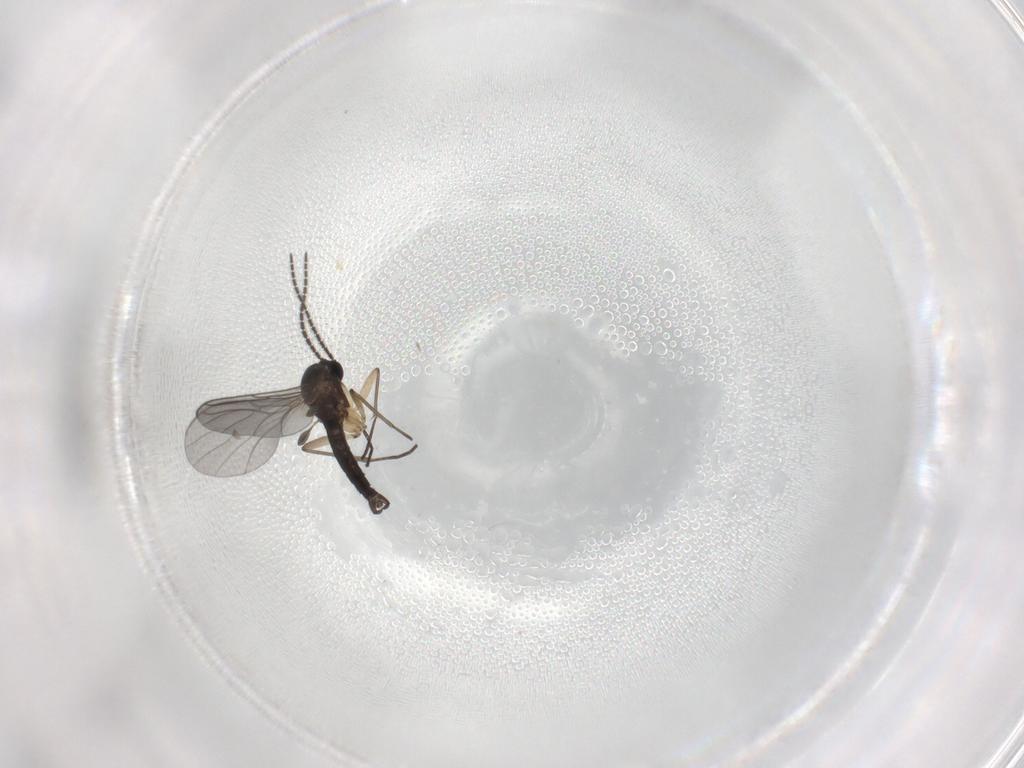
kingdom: Animalia
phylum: Arthropoda
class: Insecta
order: Diptera
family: Sciaridae
